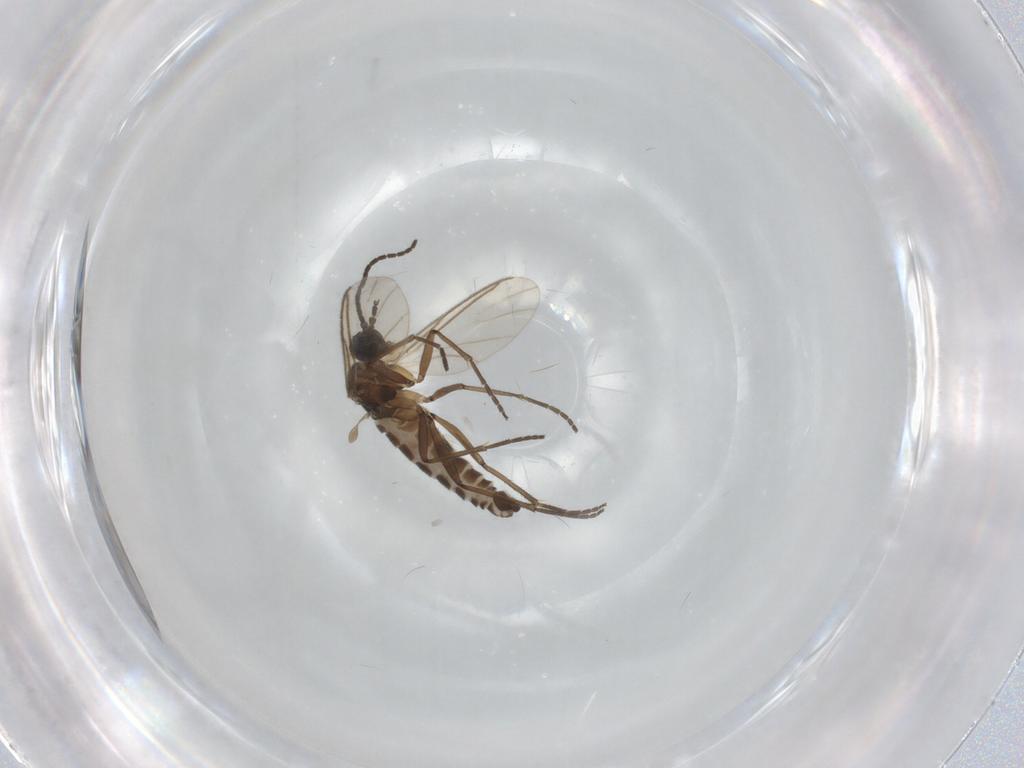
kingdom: Animalia
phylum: Arthropoda
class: Insecta
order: Diptera
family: Sciaridae
